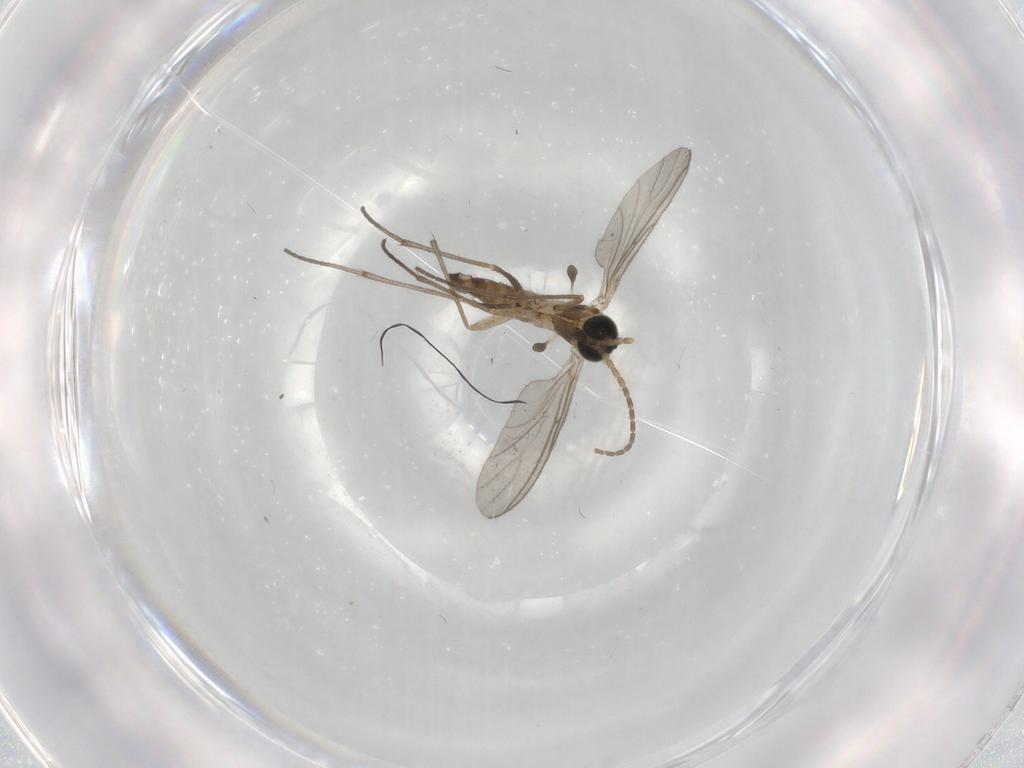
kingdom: Animalia
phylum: Arthropoda
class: Insecta
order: Diptera
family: Sciaridae
